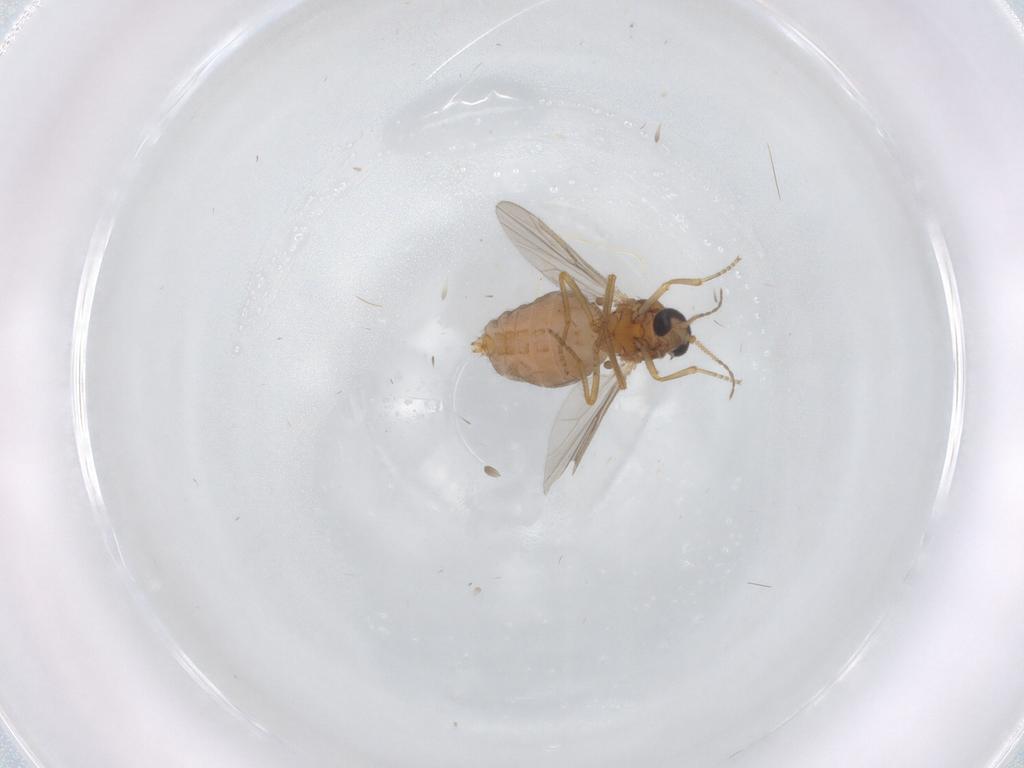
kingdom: Animalia
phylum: Arthropoda
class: Insecta
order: Diptera
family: Ceratopogonidae
